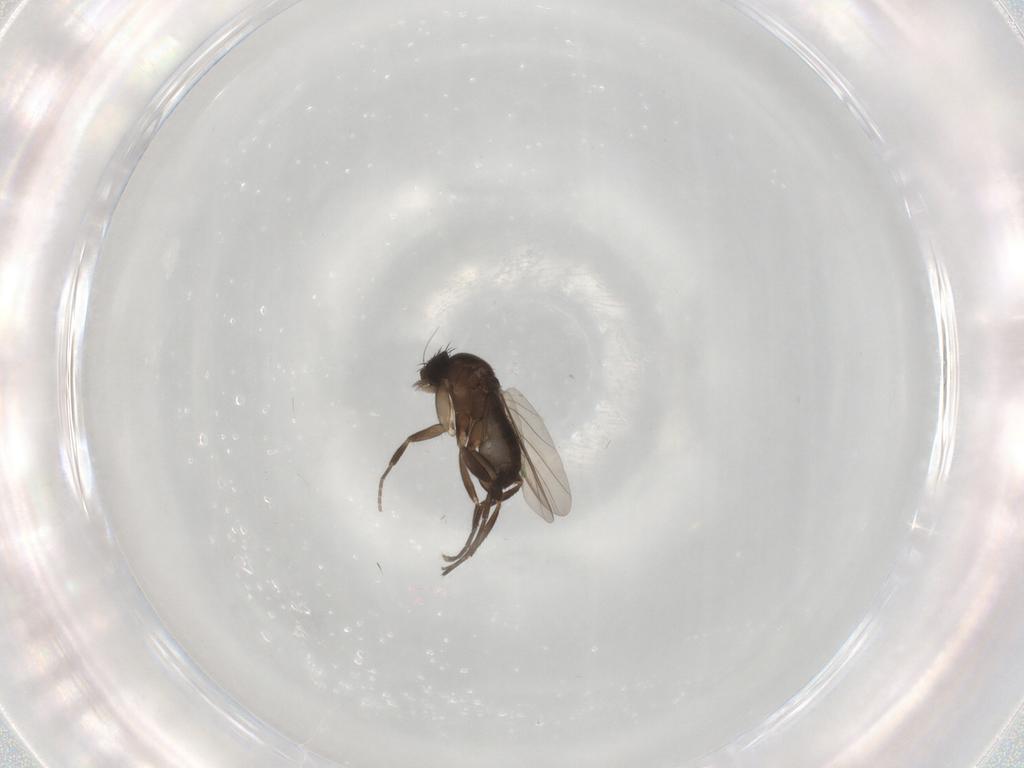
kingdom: Animalia
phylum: Arthropoda
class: Insecta
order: Diptera
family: Phoridae
